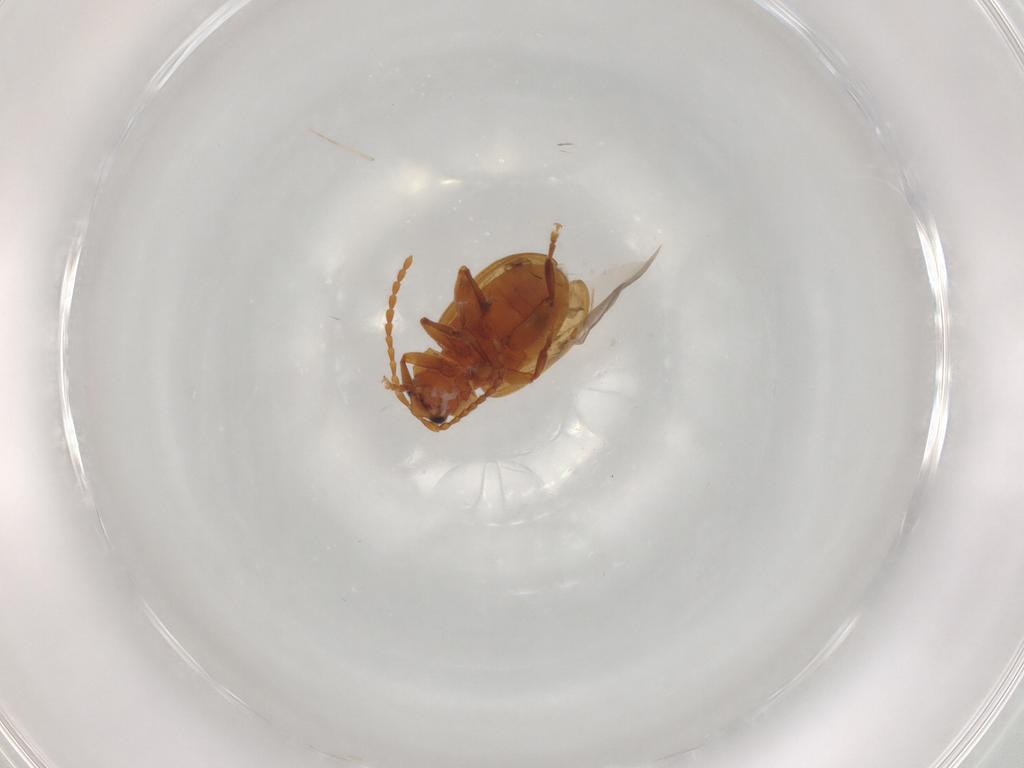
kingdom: Animalia
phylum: Arthropoda
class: Insecta
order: Coleoptera
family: Chrysomelidae
